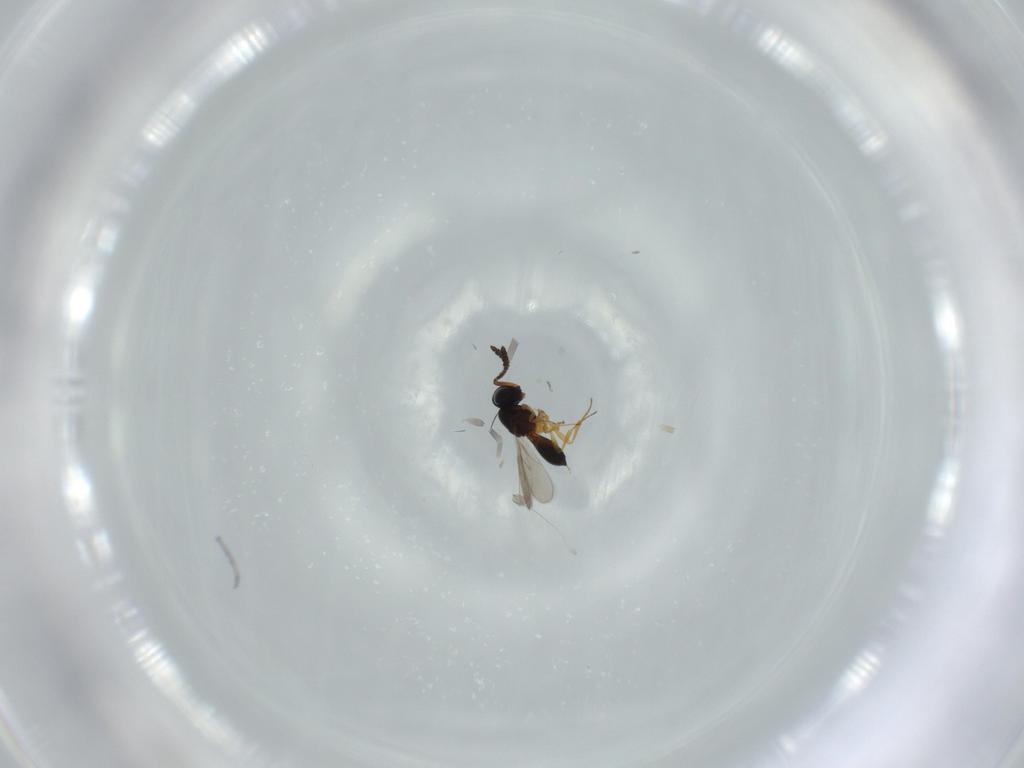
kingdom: Animalia
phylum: Arthropoda
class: Insecta
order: Hymenoptera
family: Scelionidae
